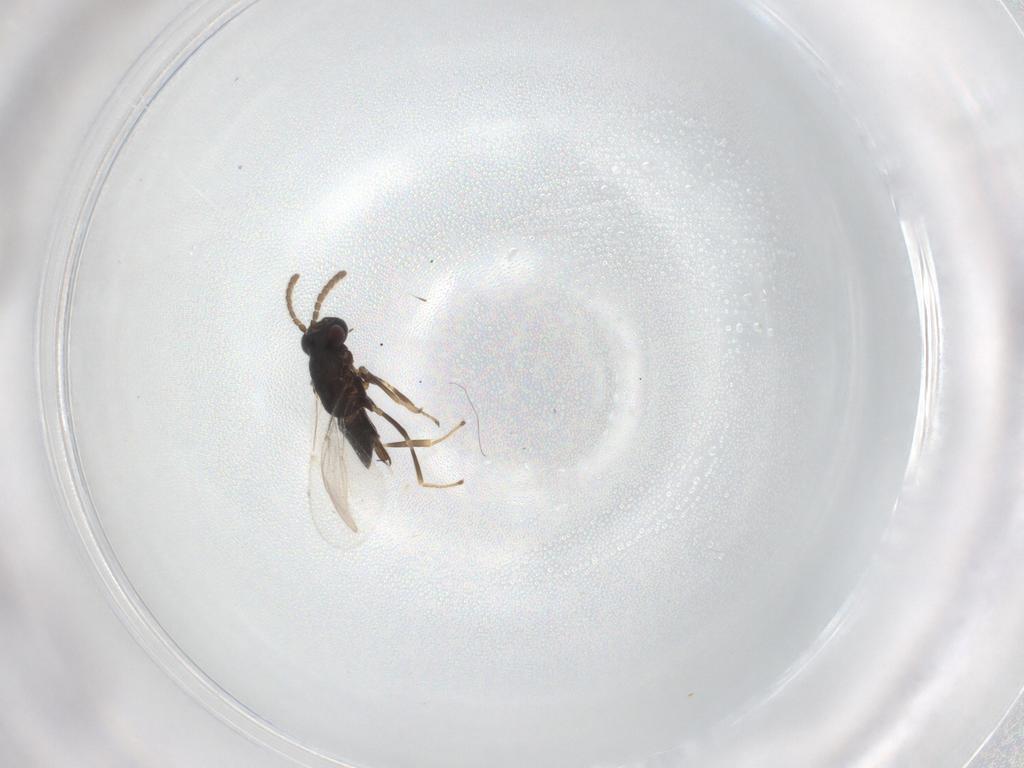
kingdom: Animalia
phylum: Arthropoda
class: Insecta
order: Hymenoptera
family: Encyrtidae
